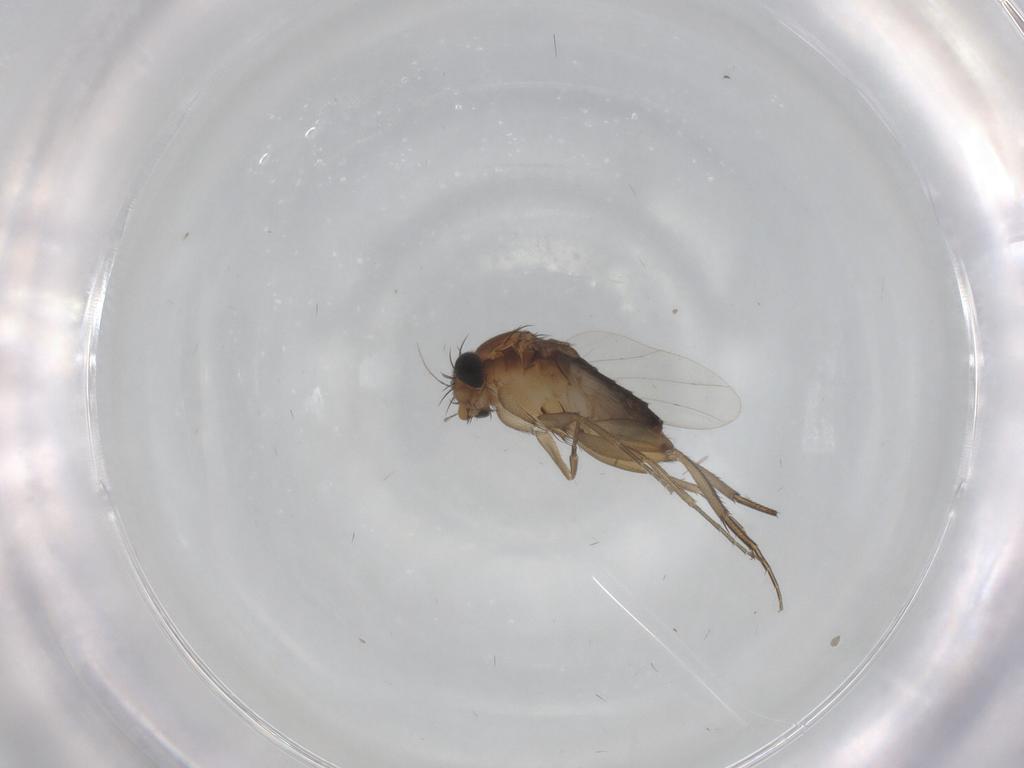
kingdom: Animalia
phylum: Arthropoda
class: Insecta
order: Diptera
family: Phoridae
